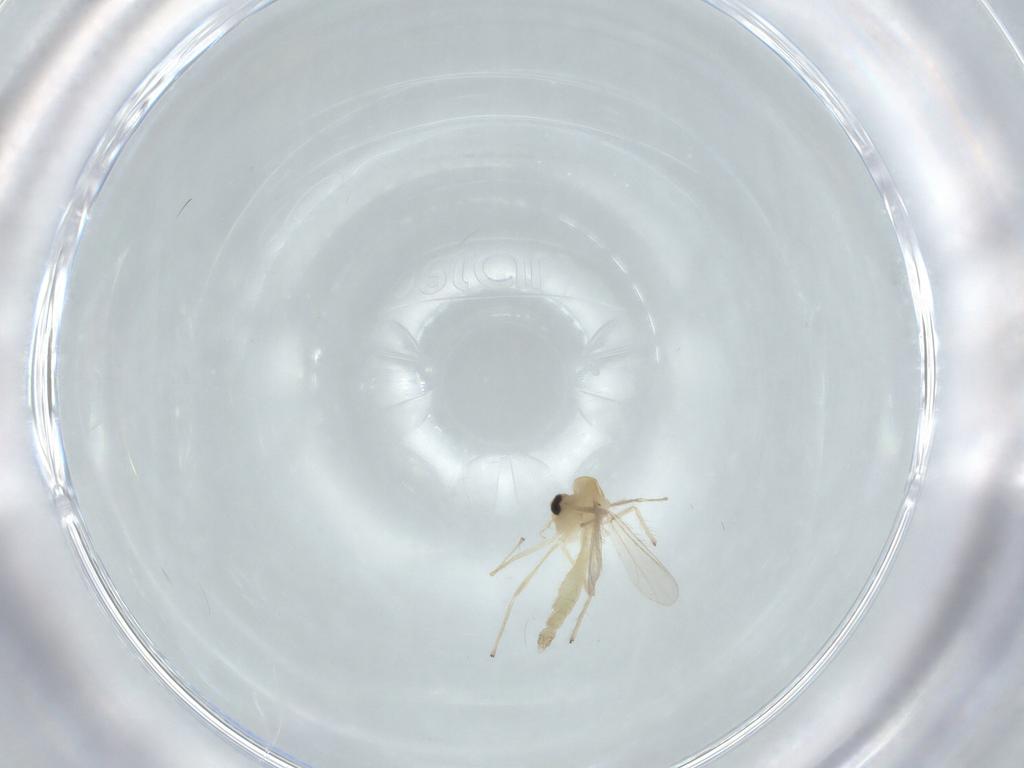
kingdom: Animalia
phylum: Arthropoda
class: Insecta
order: Diptera
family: Chironomidae
